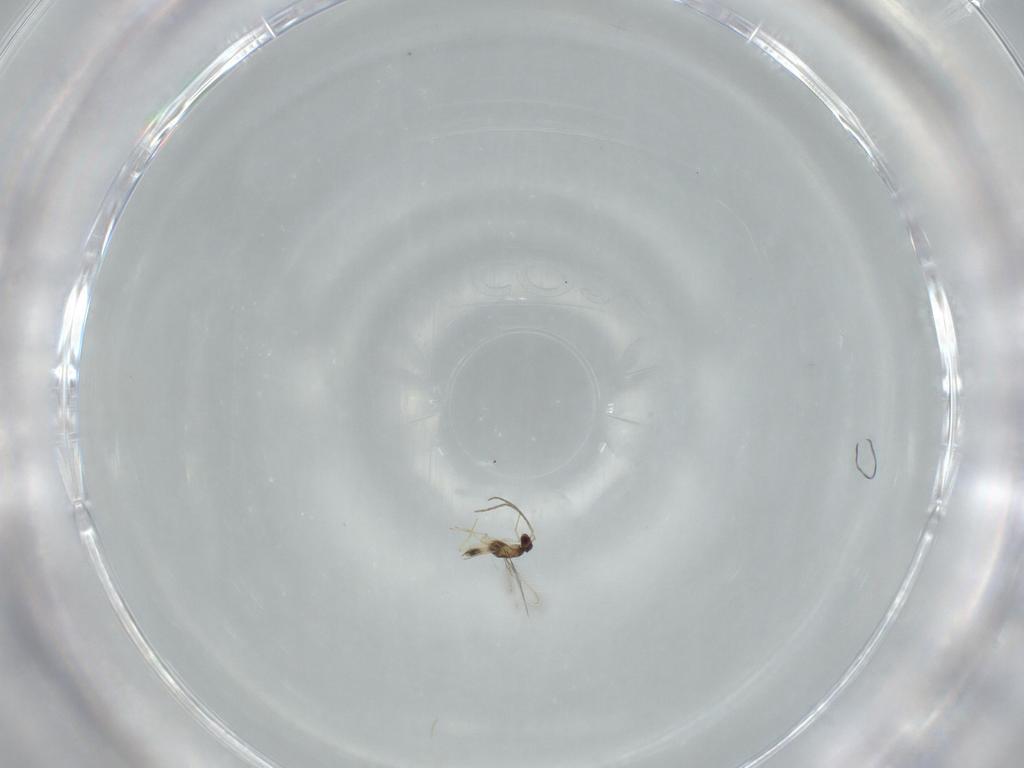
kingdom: Animalia
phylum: Arthropoda
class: Insecta
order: Hymenoptera
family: Mymaridae
